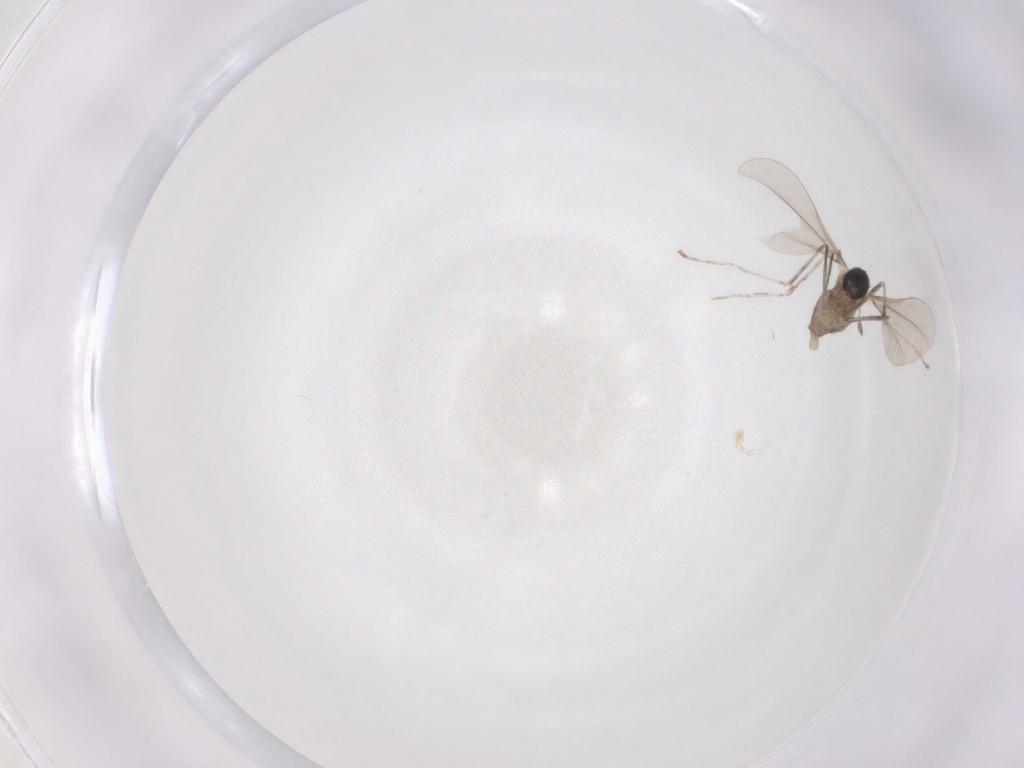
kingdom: Animalia
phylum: Arthropoda
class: Insecta
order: Diptera
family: Cecidomyiidae
